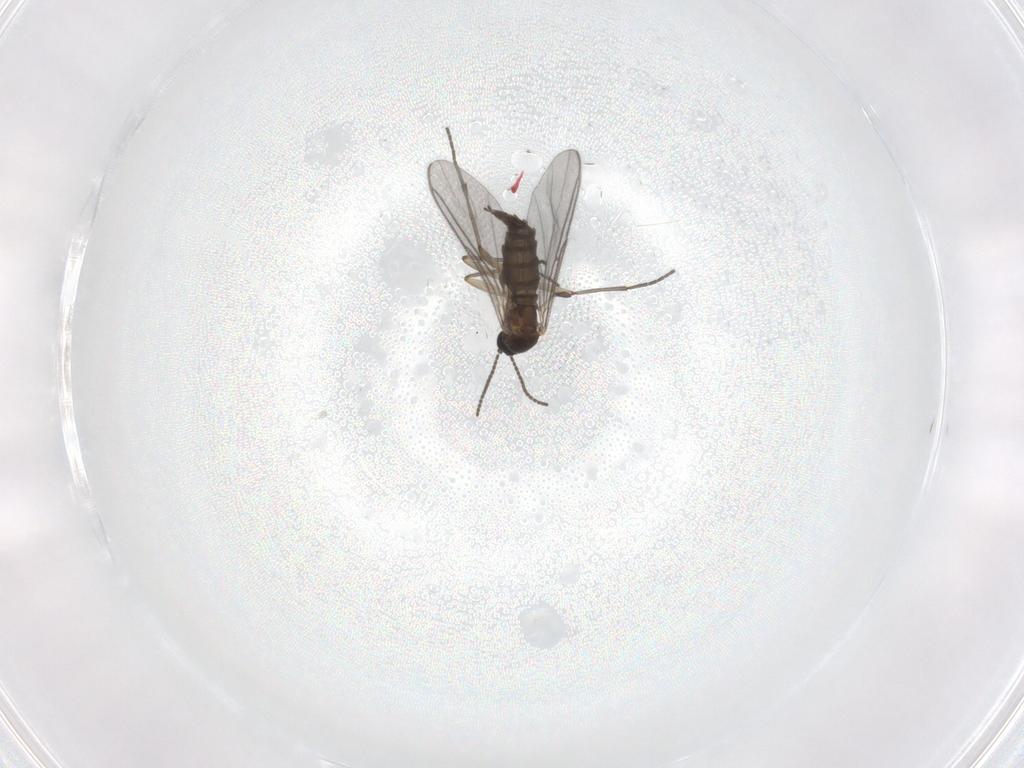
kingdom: Animalia
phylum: Arthropoda
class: Insecta
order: Diptera
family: Sciaridae
